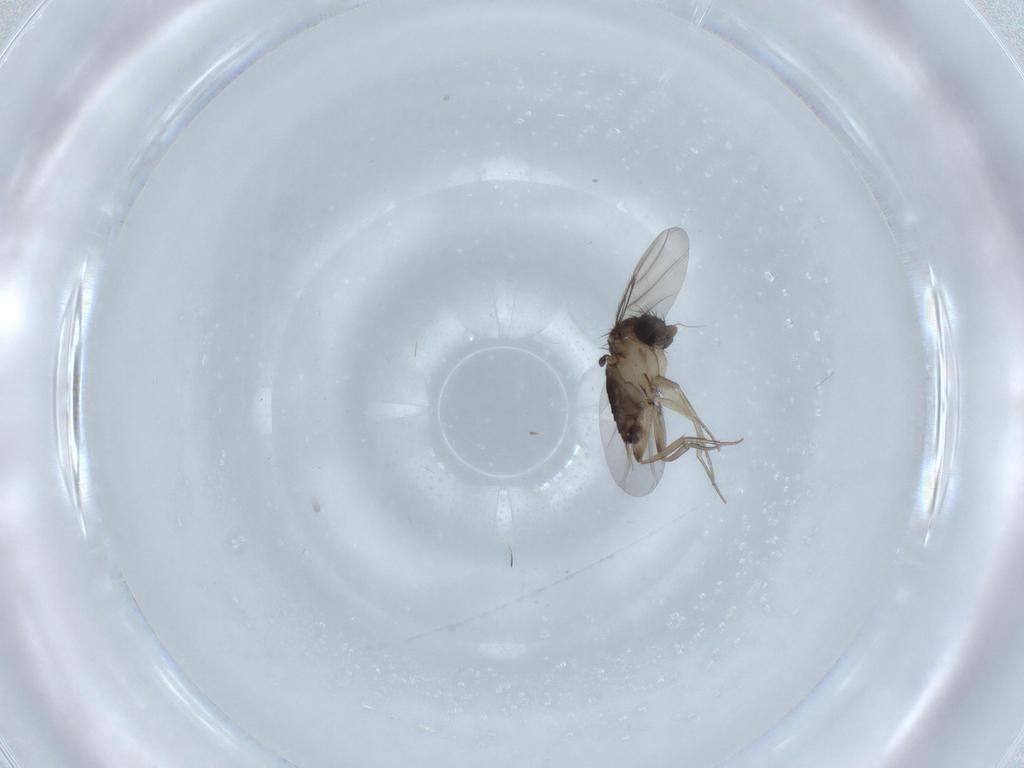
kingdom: Animalia
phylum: Arthropoda
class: Insecta
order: Diptera
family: Phoridae
